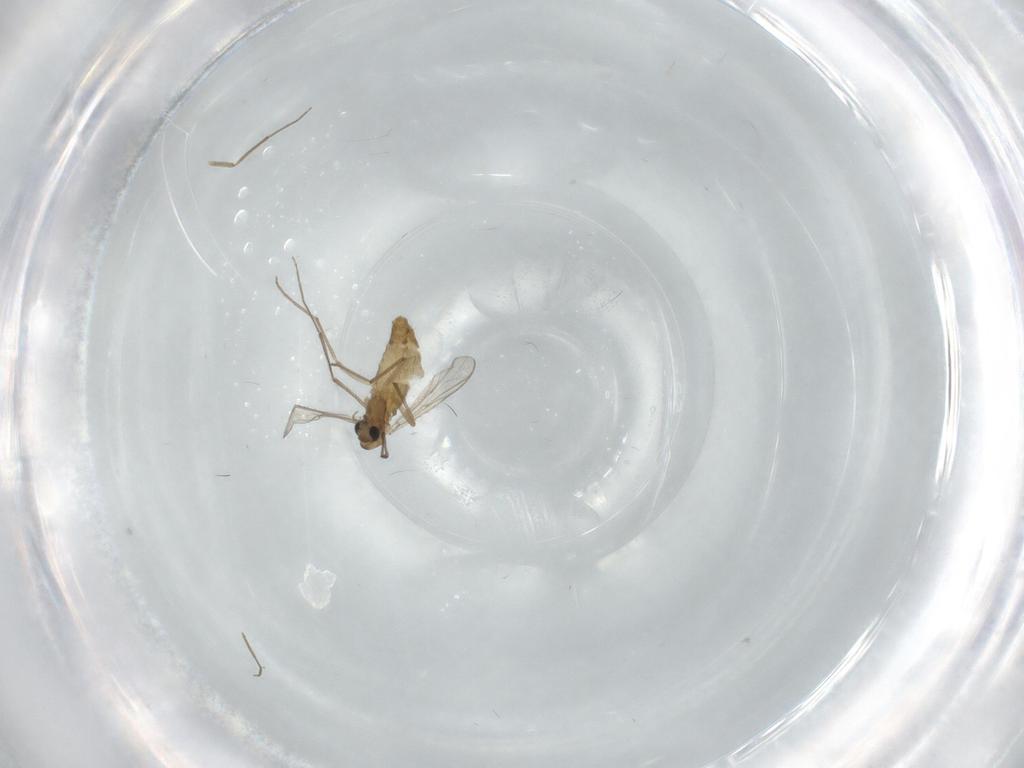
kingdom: Animalia
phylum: Arthropoda
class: Insecta
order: Diptera
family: Chironomidae
